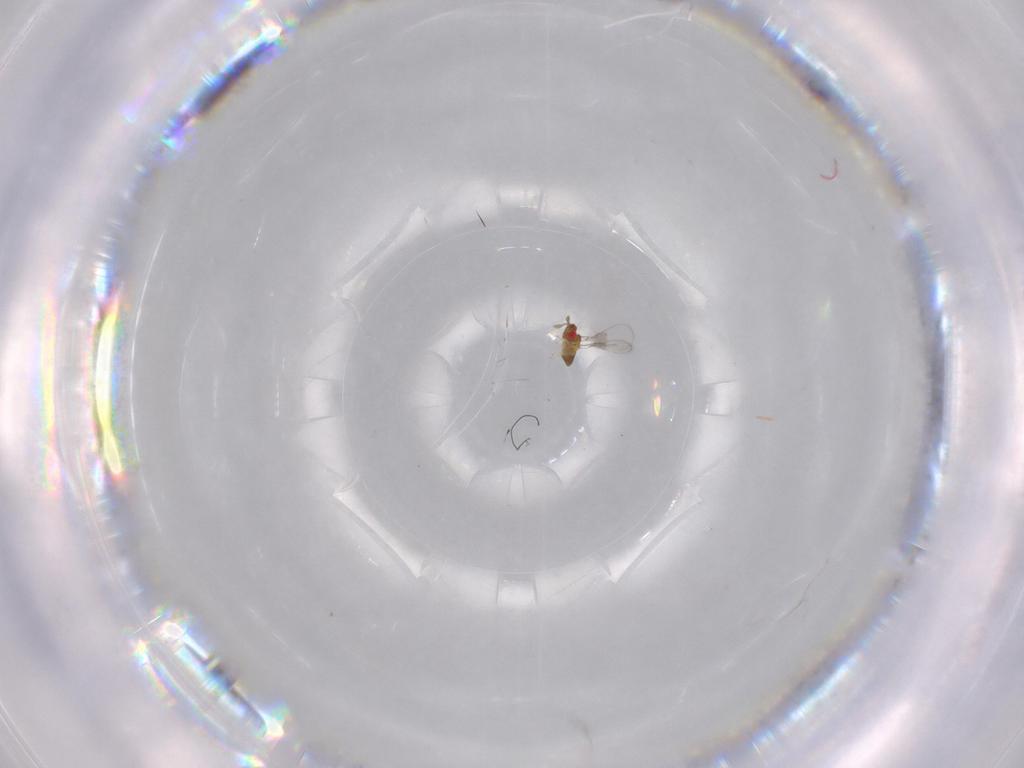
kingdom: Animalia
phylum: Arthropoda
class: Insecta
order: Hymenoptera
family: Trichogrammatidae
